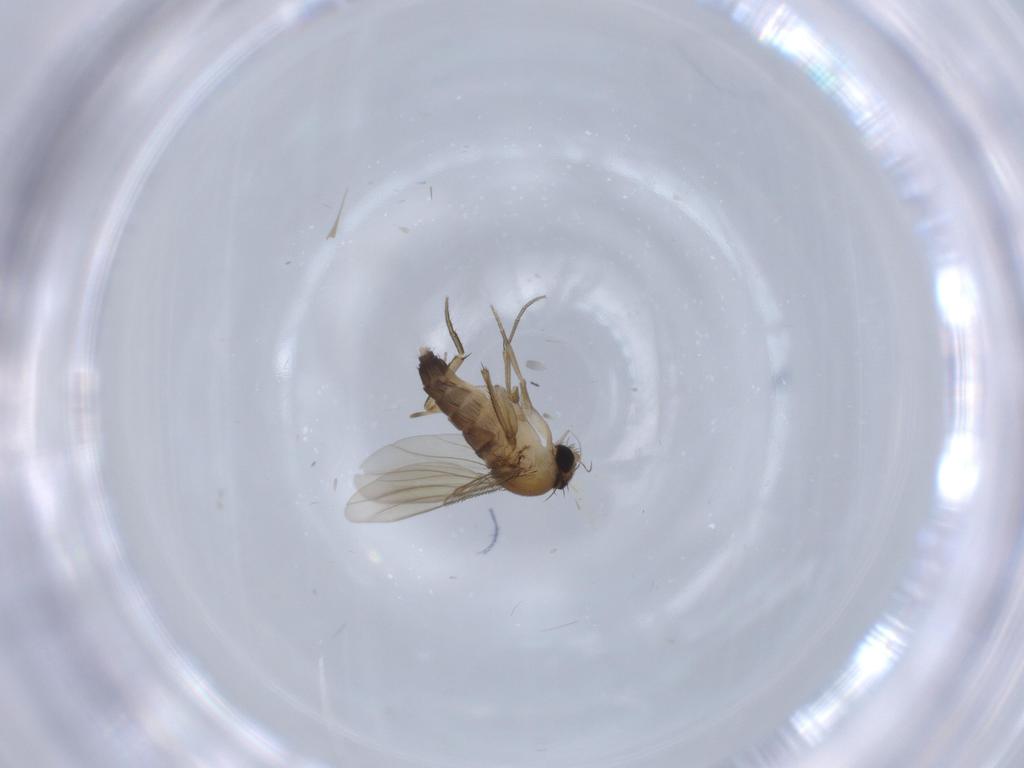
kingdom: Animalia
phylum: Arthropoda
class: Insecta
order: Diptera
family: Phoridae
